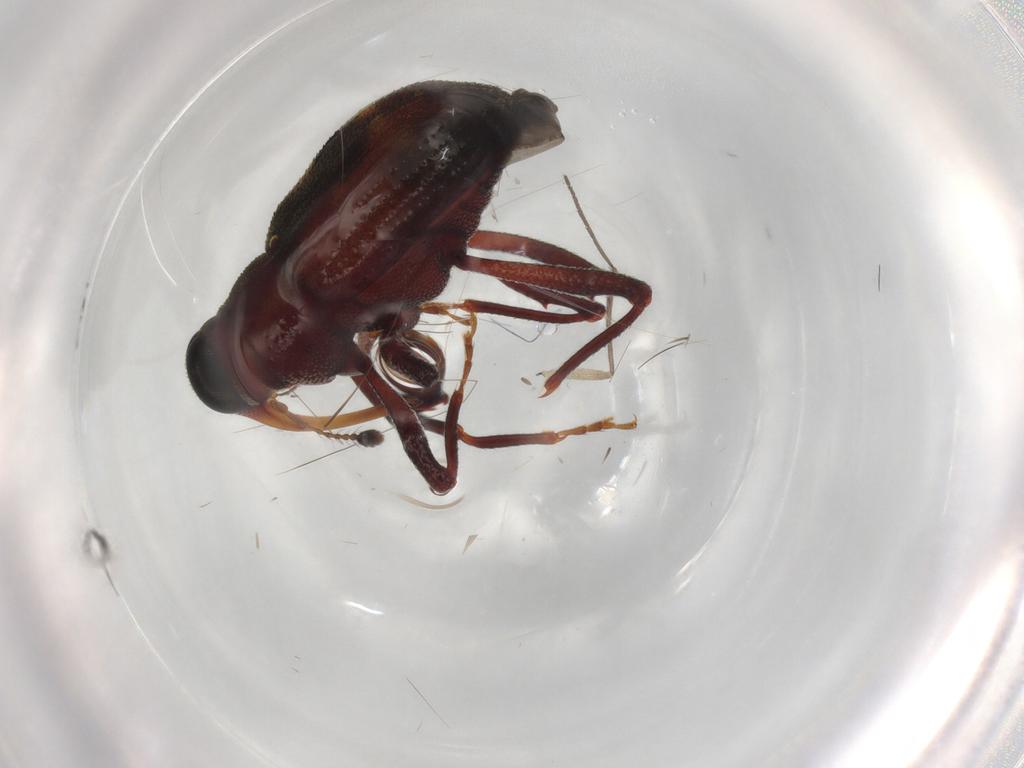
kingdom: Animalia
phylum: Arthropoda
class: Insecta
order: Coleoptera
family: Curculionidae
